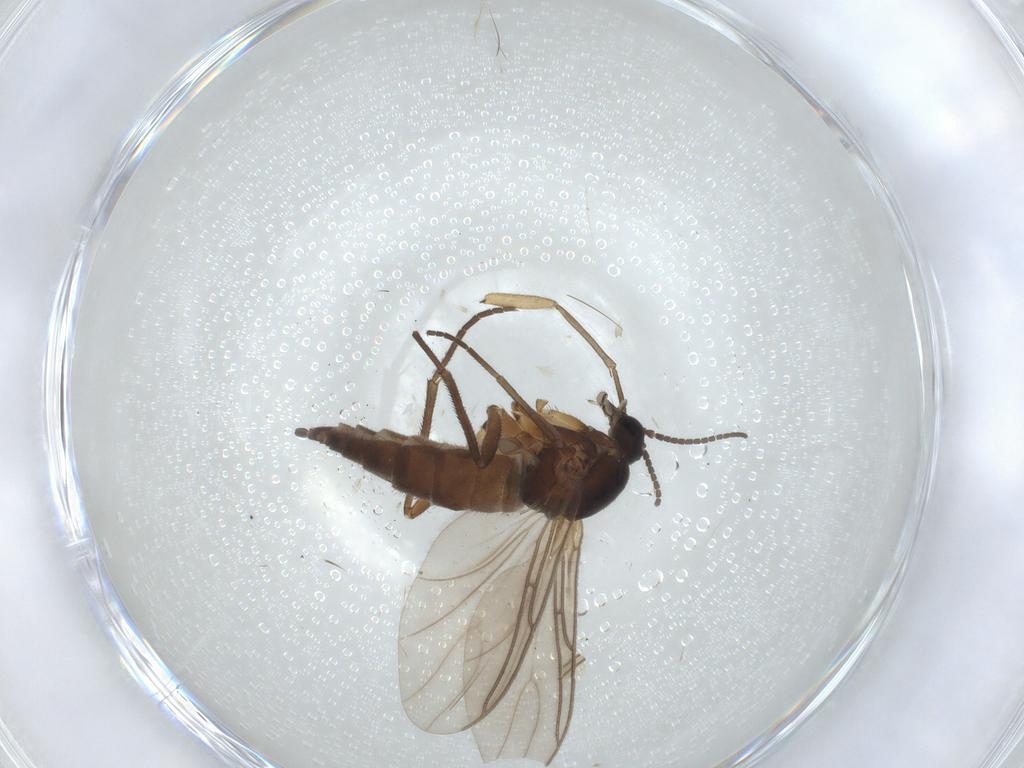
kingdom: Animalia
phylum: Arthropoda
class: Insecta
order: Diptera
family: Sciaridae
